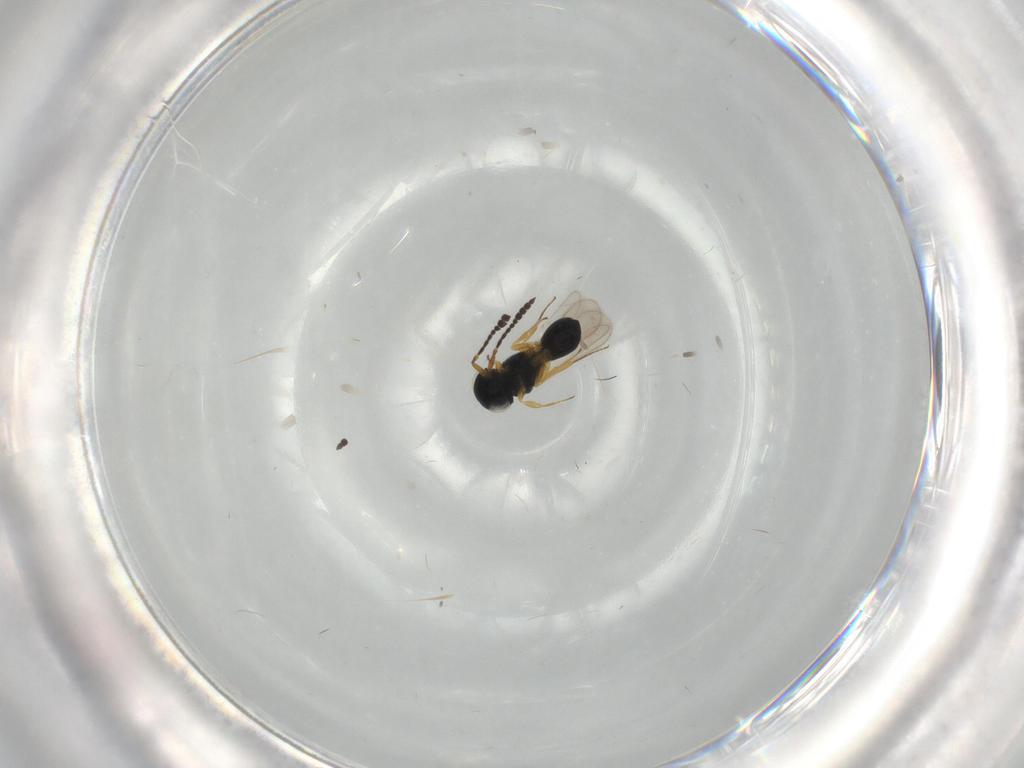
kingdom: Animalia
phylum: Arthropoda
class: Insecta
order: Hymenoptera
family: Scelionidae
